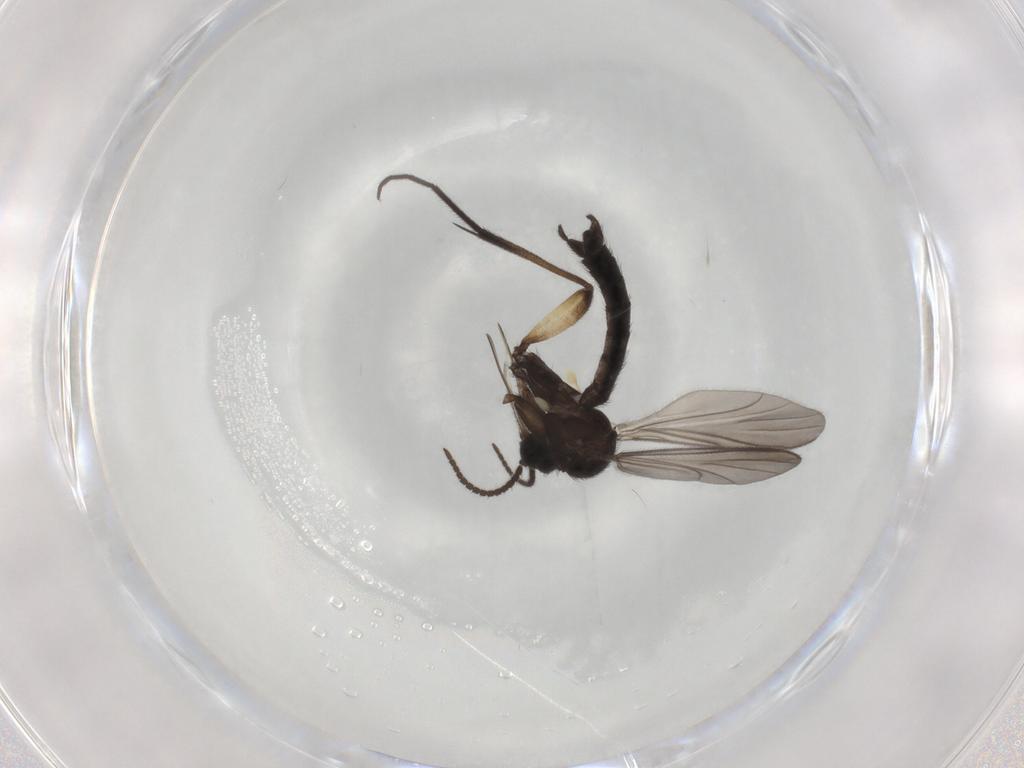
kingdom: Animalia
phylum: Arthropoda
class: Insecta
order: Diptera
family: Keroplatidae
